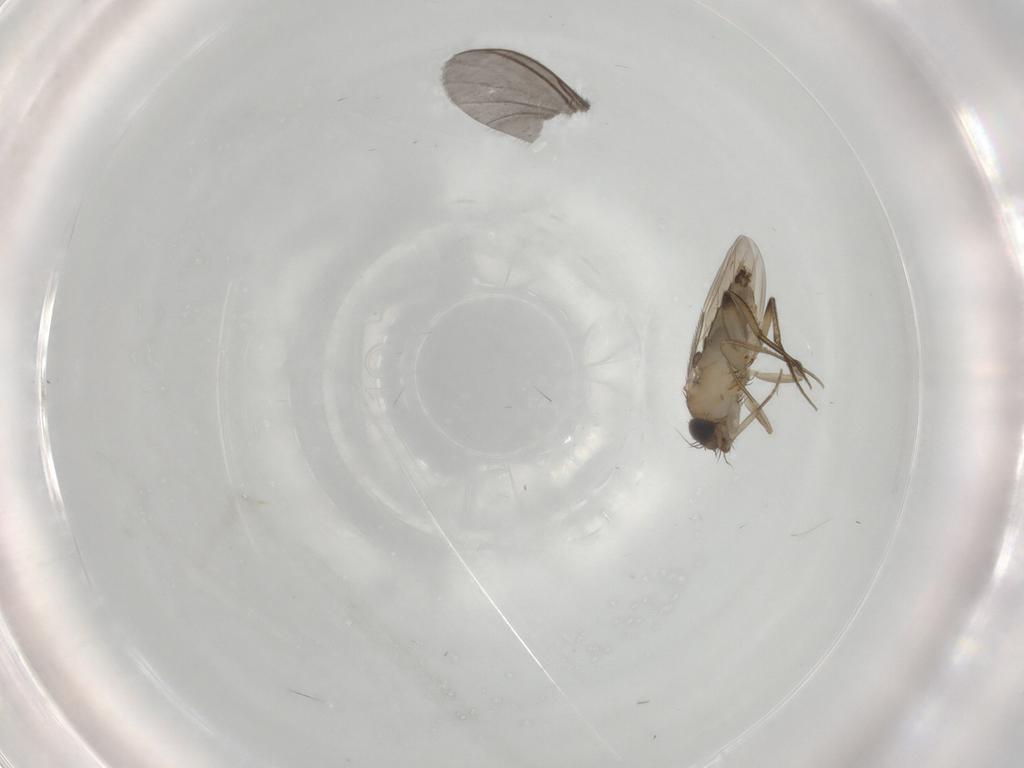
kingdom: Animalia
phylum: Arthropoda
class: Insecta
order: Diptera
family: Phoridae
